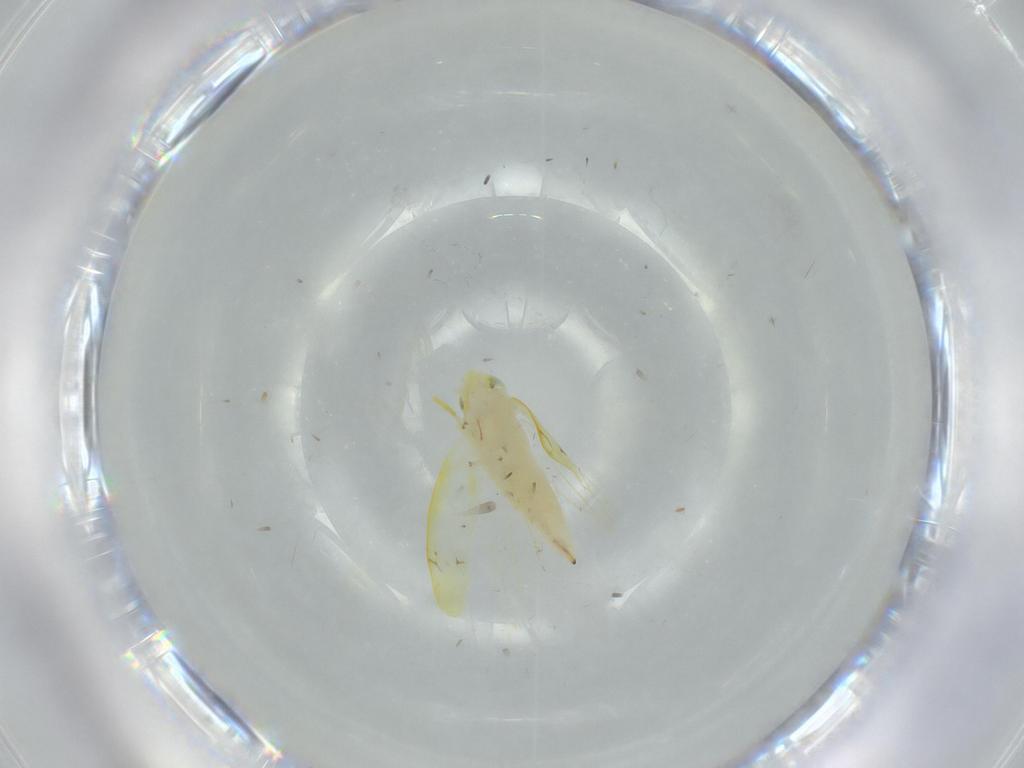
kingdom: Animalia
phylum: Arthropoda
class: Insecta
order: Hemiptera
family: Cicadellidae
